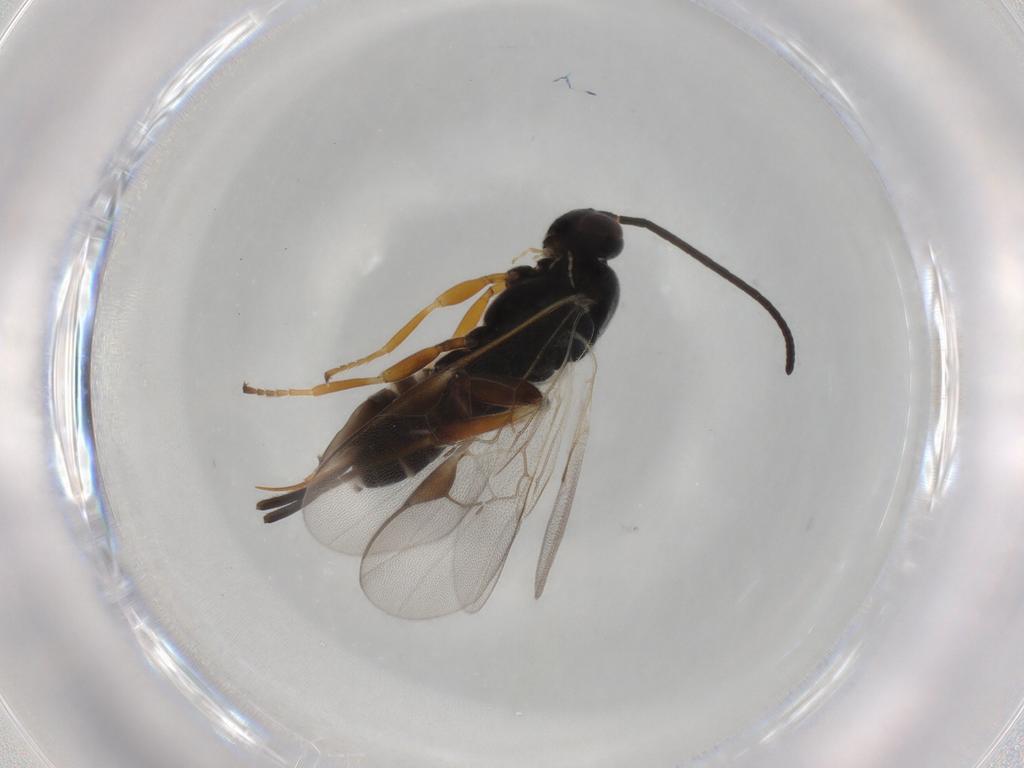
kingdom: Animalia
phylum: Arthropoda
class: Insecta
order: Hymenoptera
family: Braconidae
